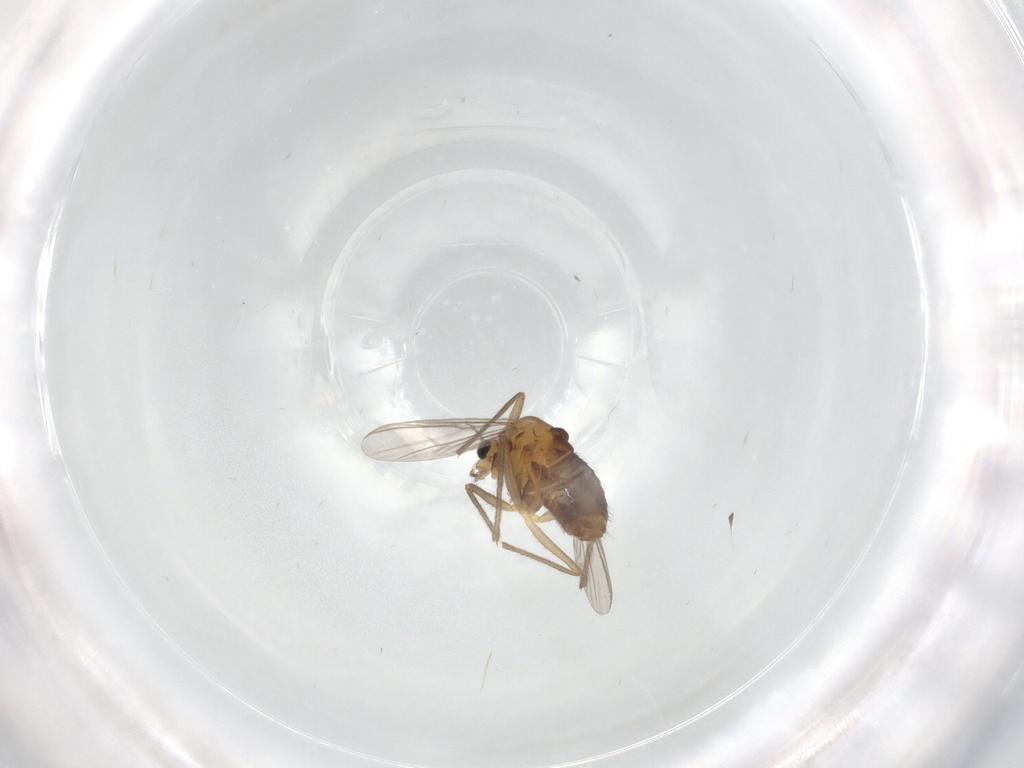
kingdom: Animalia
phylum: Arthropoda
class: Insecta
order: Diptera
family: Chironomidae
